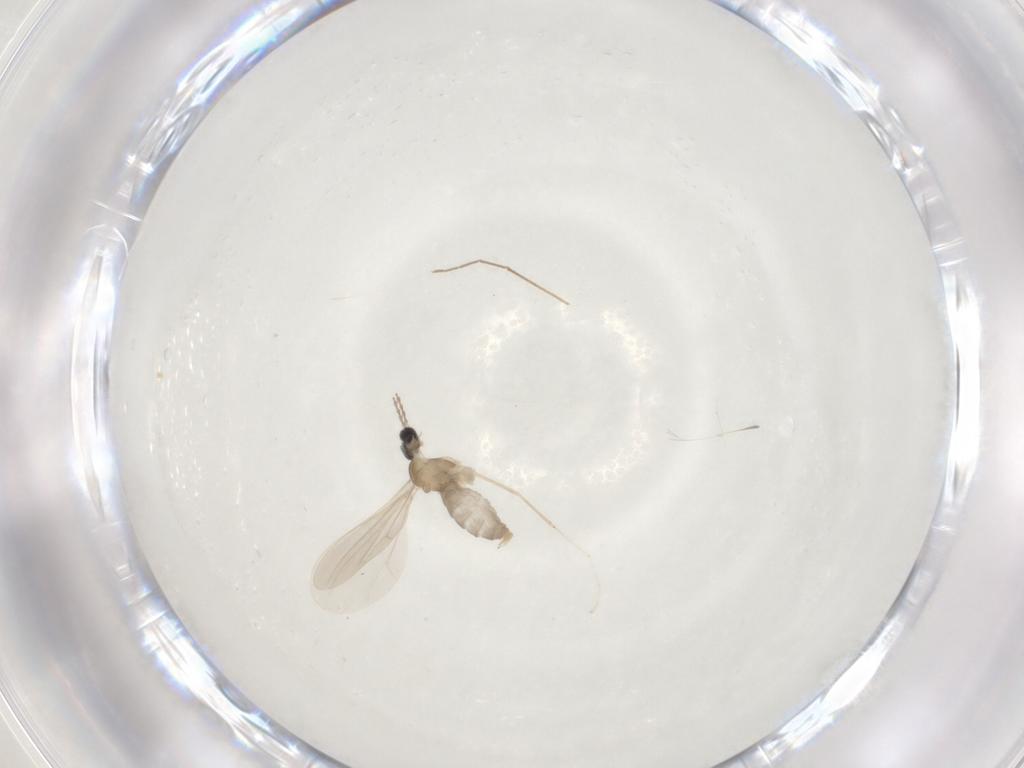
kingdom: Animalia
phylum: Arthropoda
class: Insecta
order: Diptera
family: Cecidomyiidae
